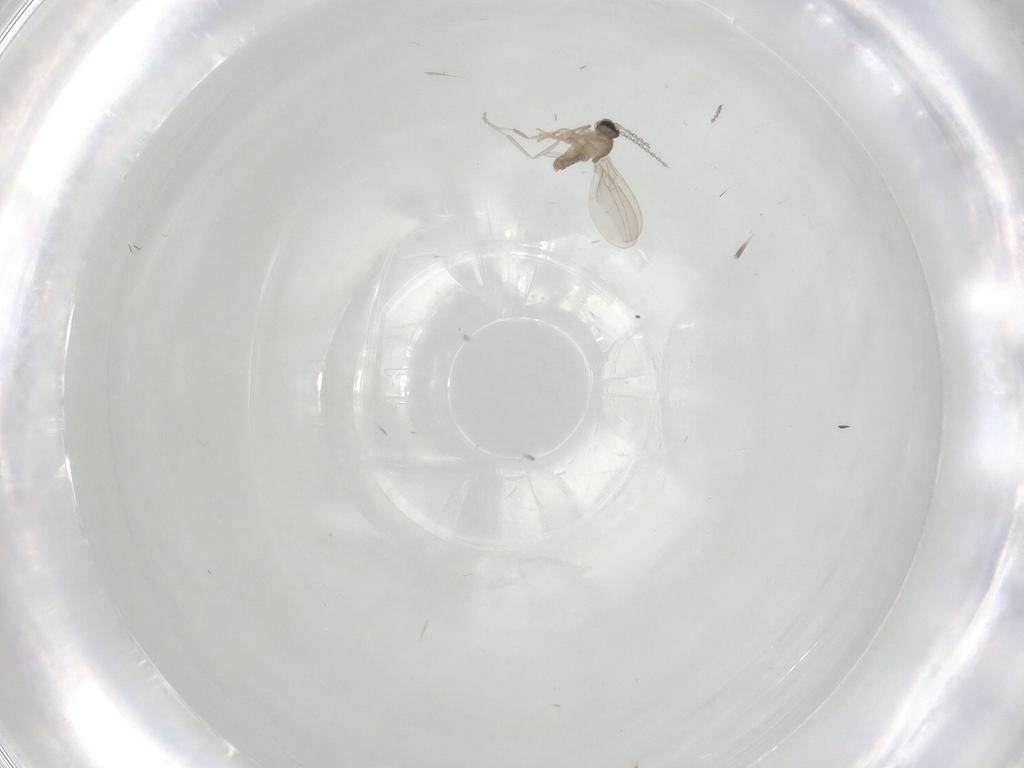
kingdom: Animalia
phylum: Arthropoda
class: Insecta
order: Diptera
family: Cecidomyiidae
